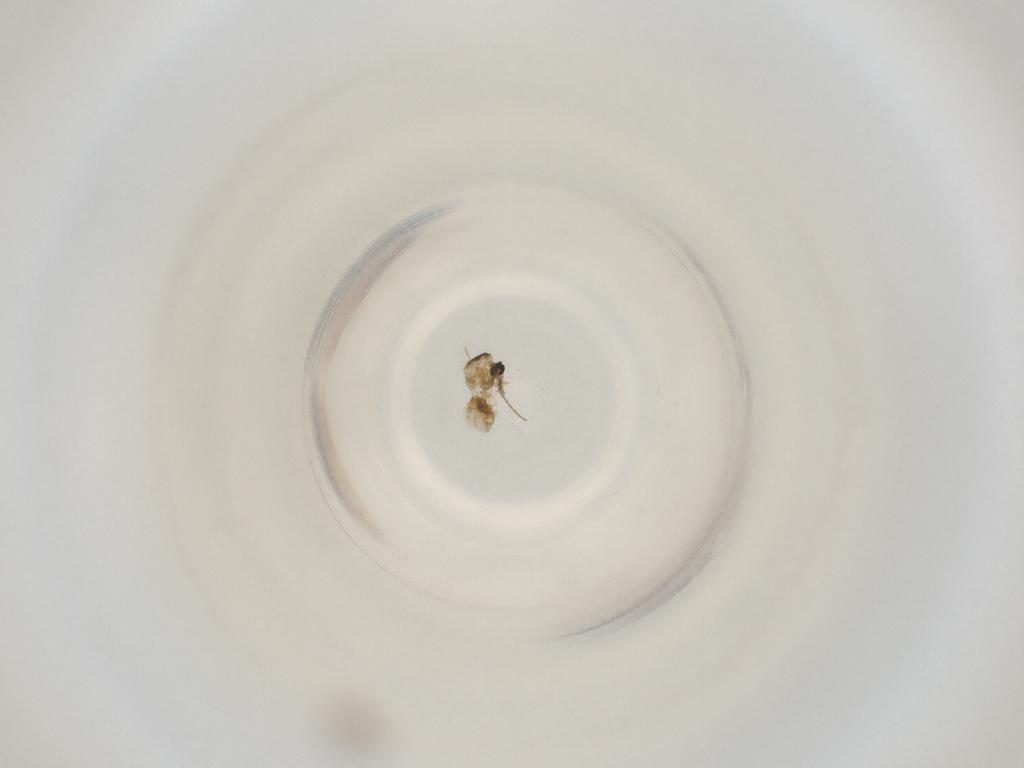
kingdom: Animalia
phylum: Arthropoda
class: Insecta
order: Diptera
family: Cecidomyiidae
